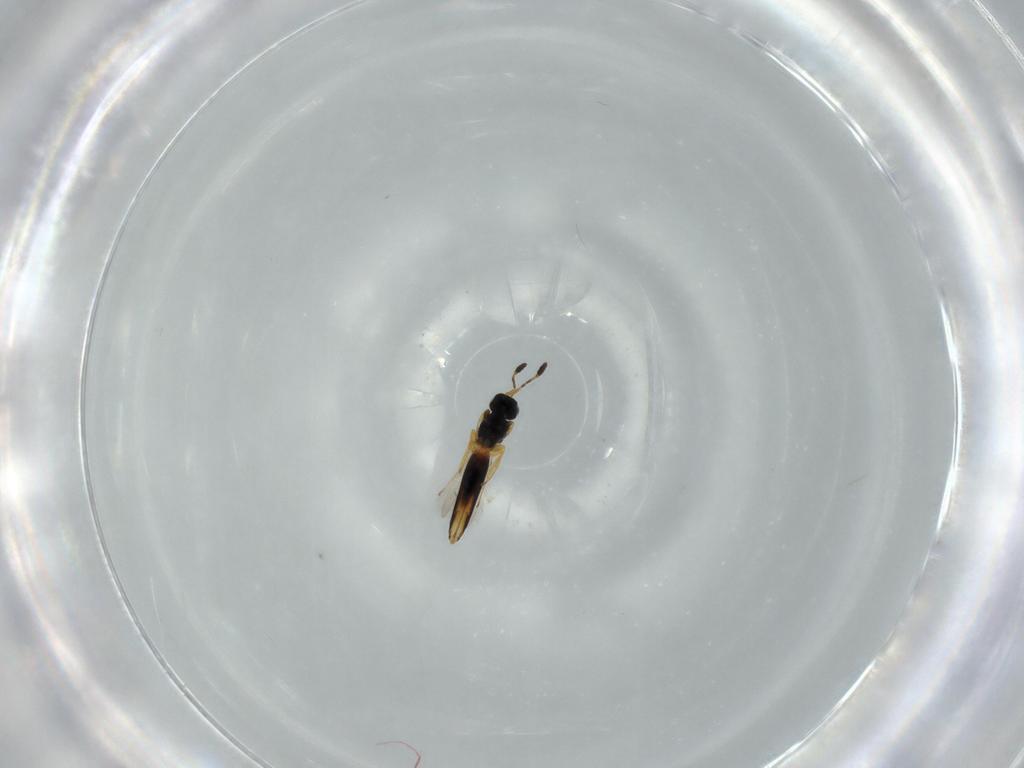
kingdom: Animalia
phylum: Arthropoda
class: Insecta
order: Hymenoptera
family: Scelionidae
